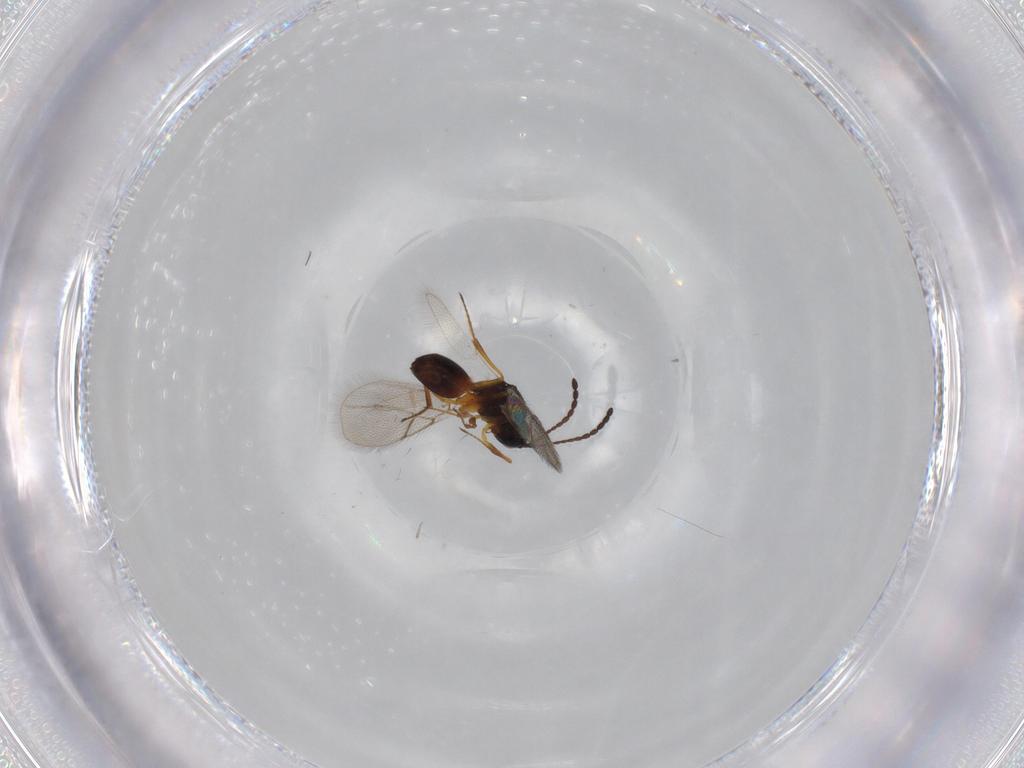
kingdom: Animalia
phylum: Arthropoda
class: Insecta
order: Hymenoptera
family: Figitidae
